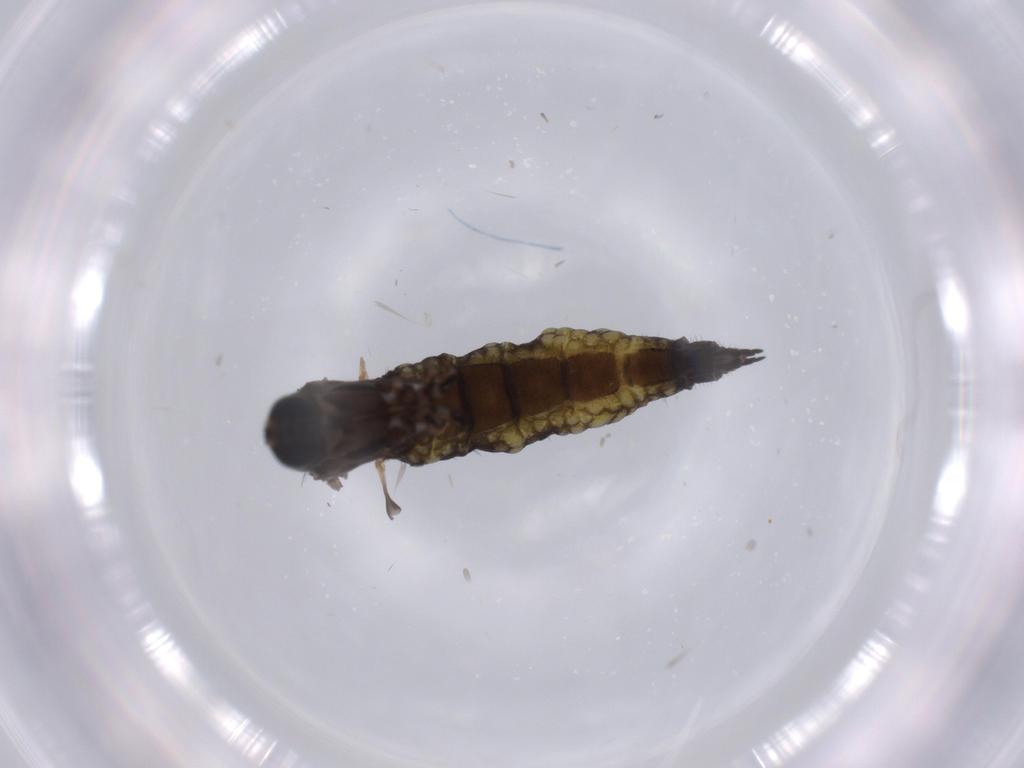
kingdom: Animalia
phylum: Arthropoda
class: Insecta
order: Diptera
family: Sciaridae
